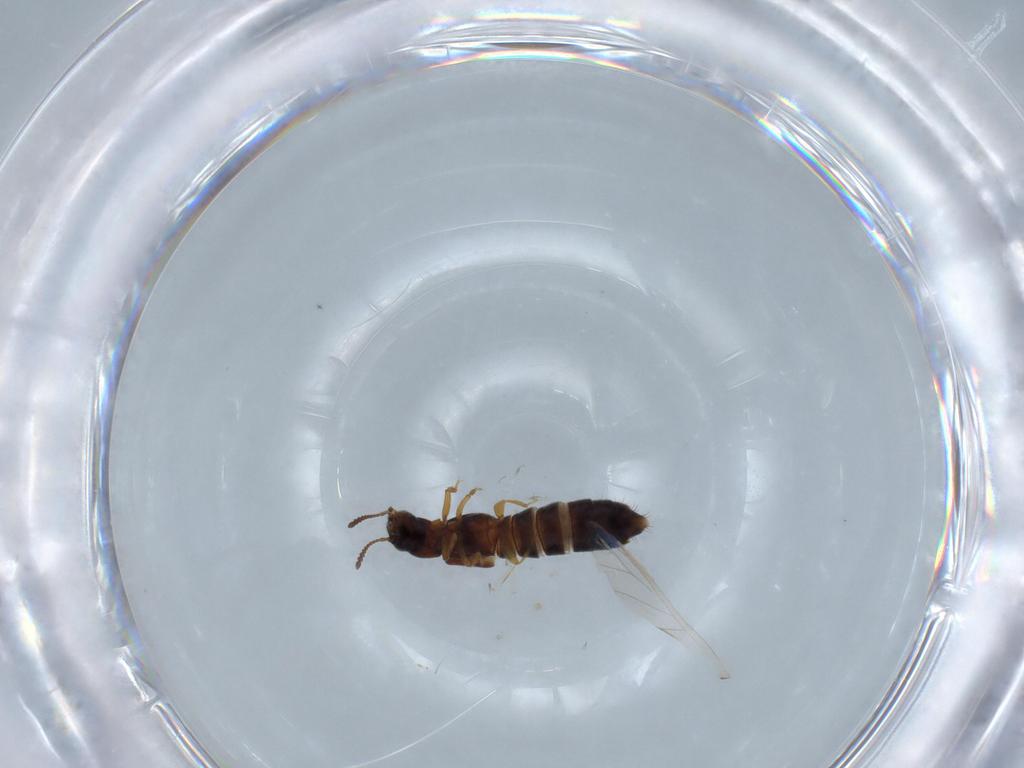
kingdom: Animalia
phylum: Arthropoda
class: Insecta
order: Coleoptera
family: Staphylinidae
